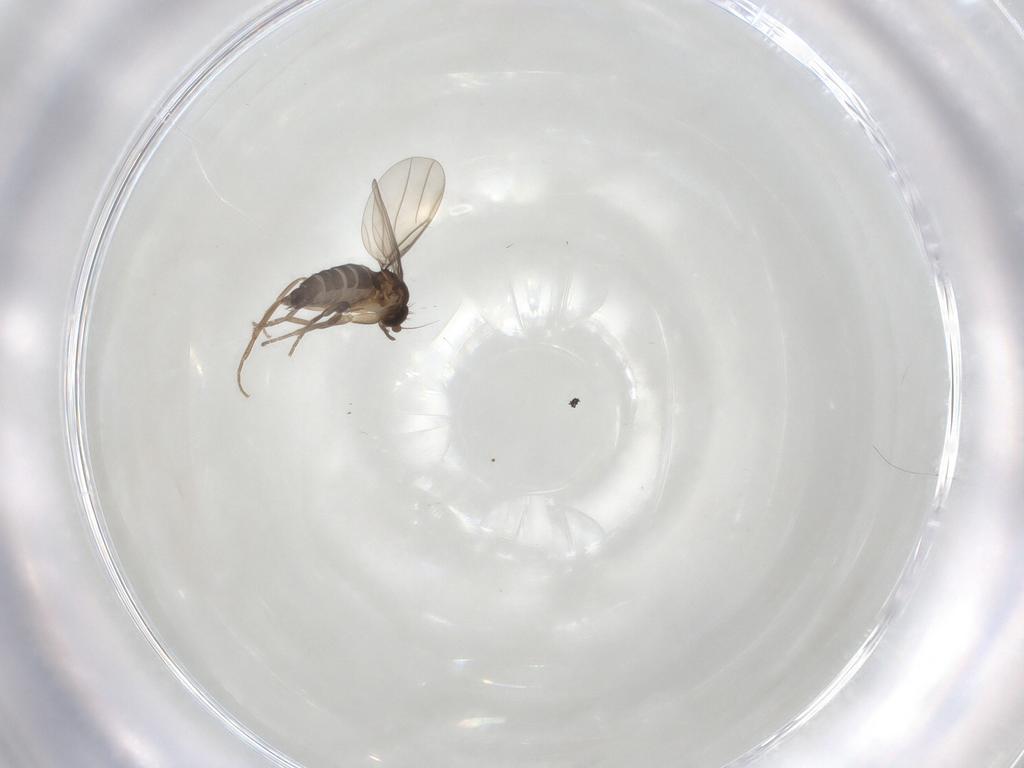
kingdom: Animalia
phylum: Arthropoda
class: Insecta
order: Diptera
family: Phoridae
